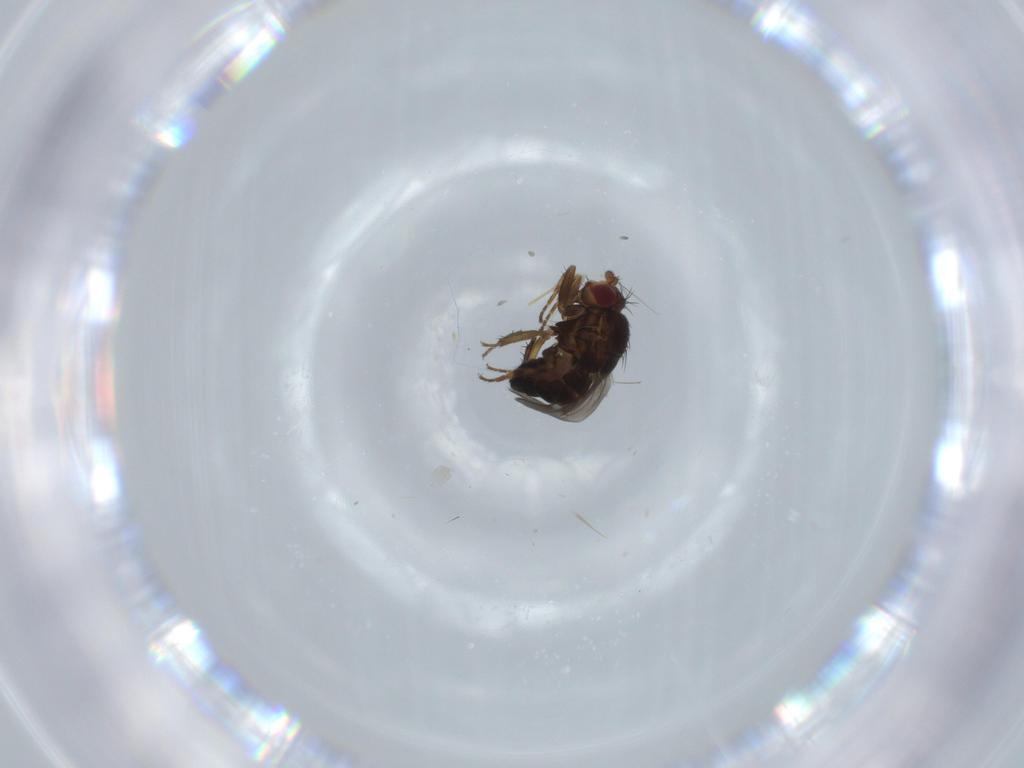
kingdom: Animalia
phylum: Arthropoda
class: Insecta
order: Diptera
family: Sphaeroceridae
